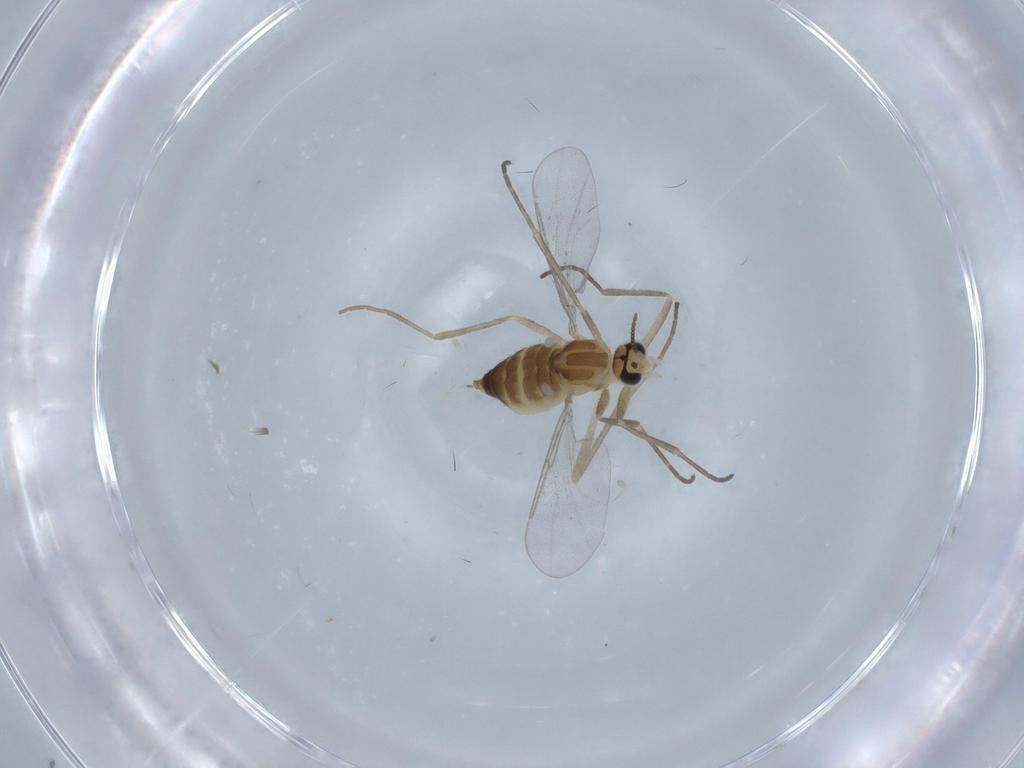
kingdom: Animalia
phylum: Arthropoda
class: Insecta
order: Diptera
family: Cecidomyiidae
